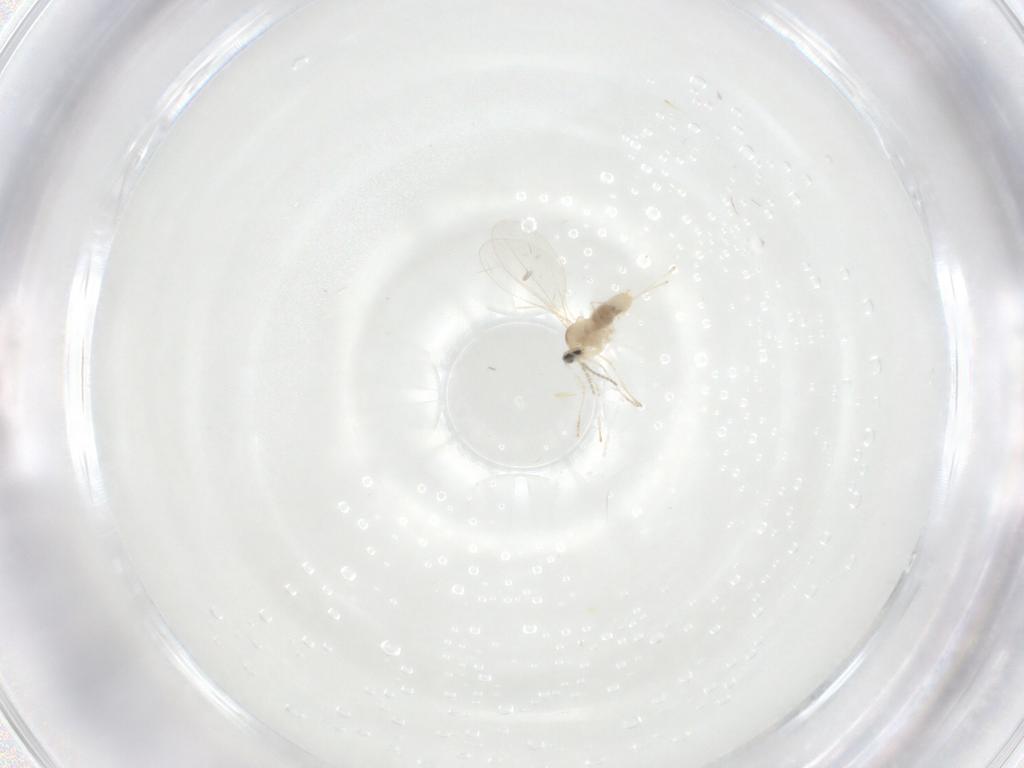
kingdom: Animalia
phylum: Arthropoda
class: Insecta
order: Diptera
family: Cecidomyiidae
